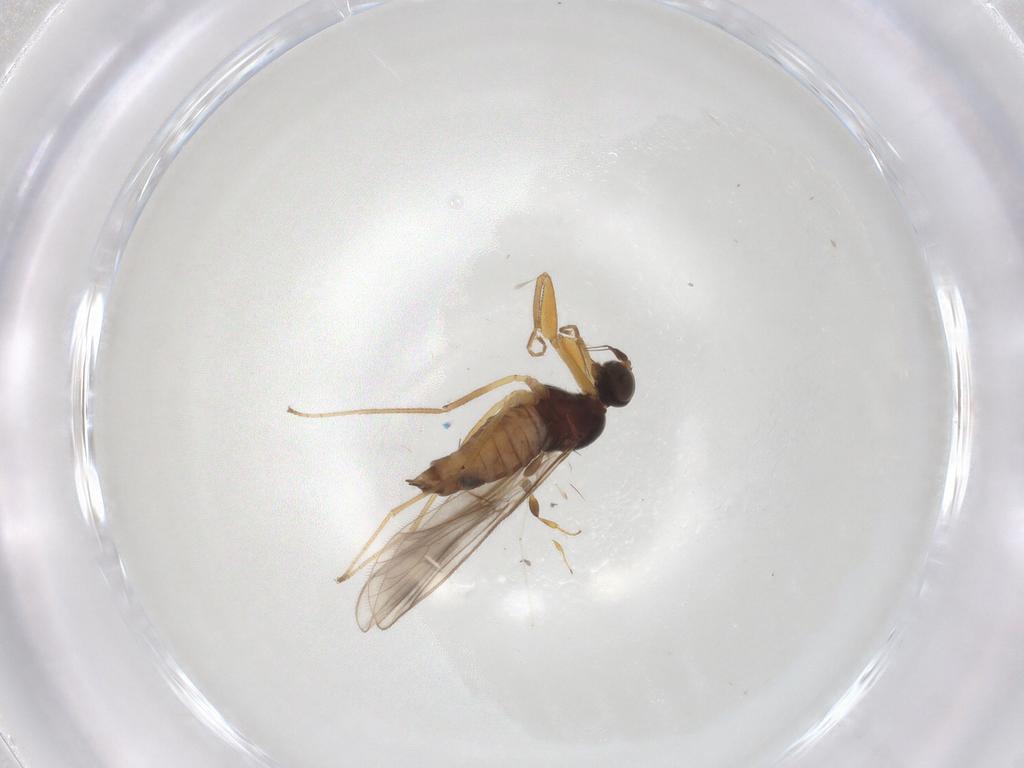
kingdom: Animalia
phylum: Arthropoda
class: Insecta
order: Diptera
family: Empididae
